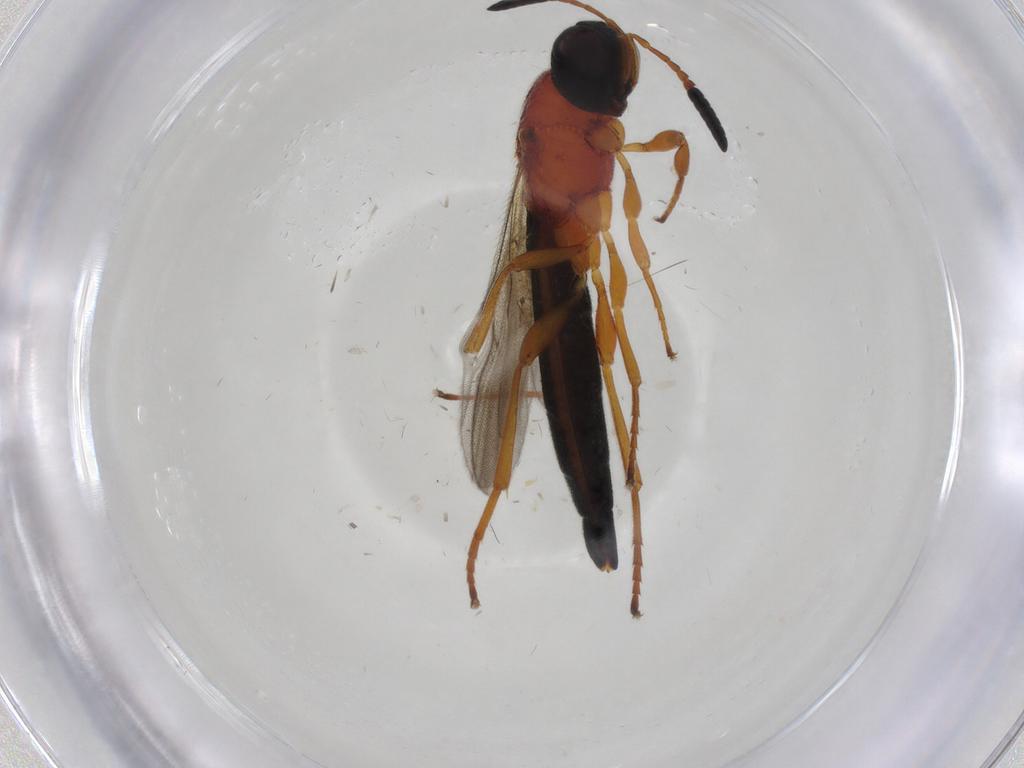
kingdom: Animalia
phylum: Arthropoda
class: Insecta
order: Hymenoptera
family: Scelionidae
